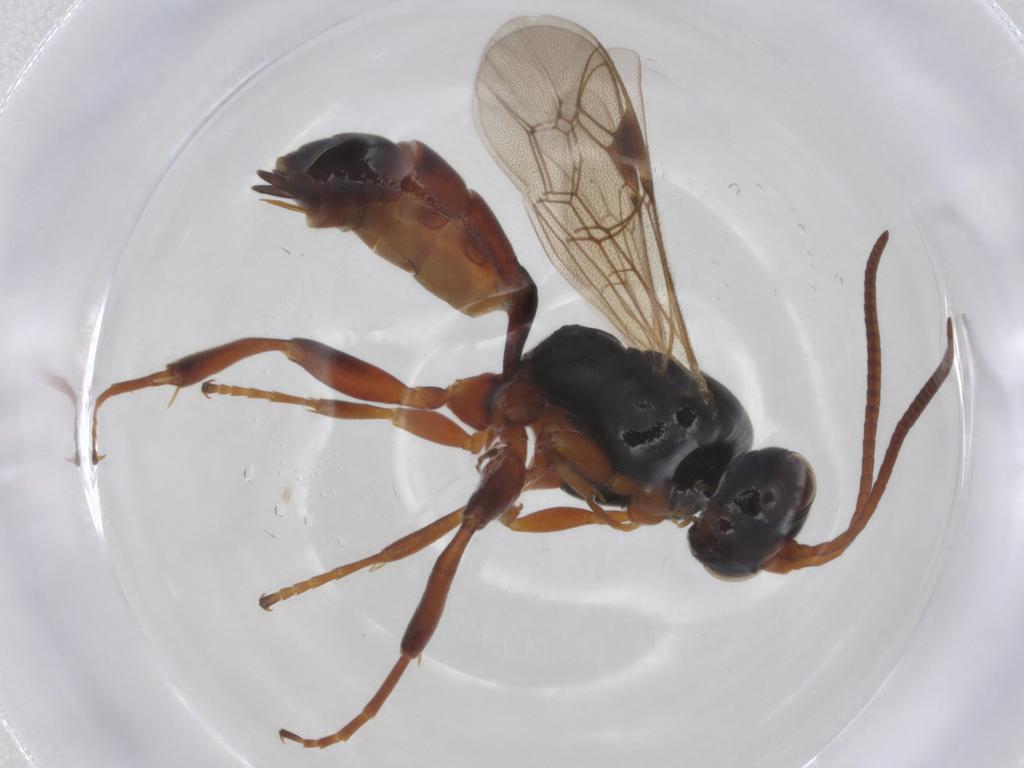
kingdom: Animalia
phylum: Arthropoda
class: Insecta
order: Hymenoptera
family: Ichneumonidae
